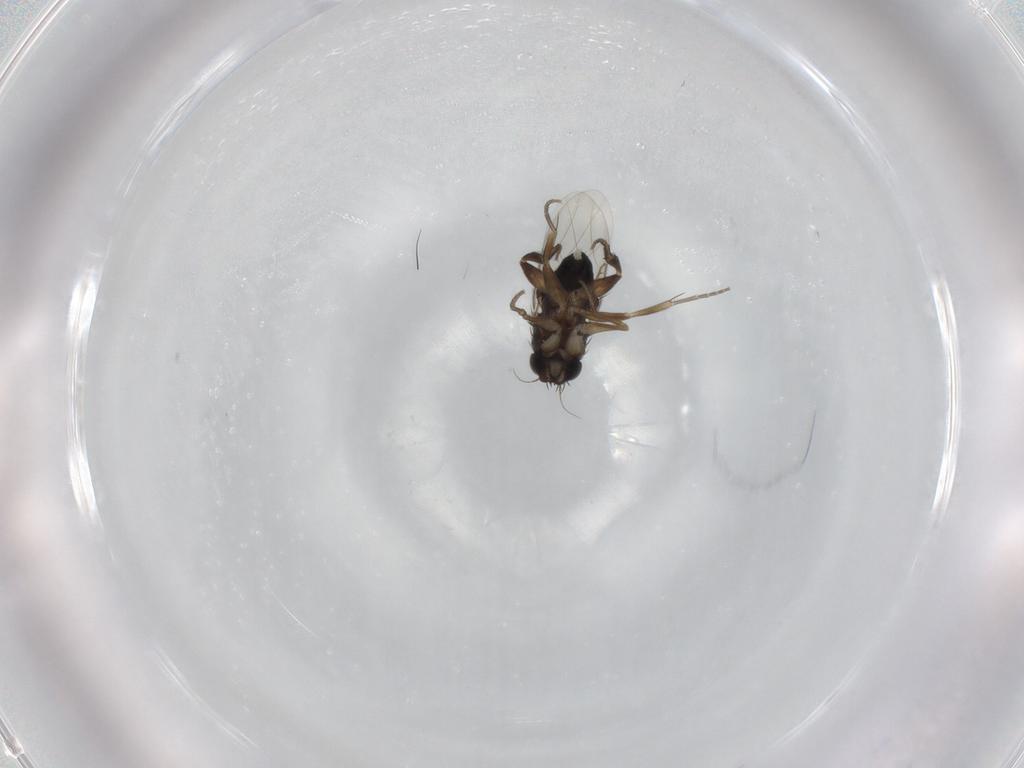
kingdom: Animalia
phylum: Arthropoda
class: Insecta
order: Diptera
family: Phoridae
